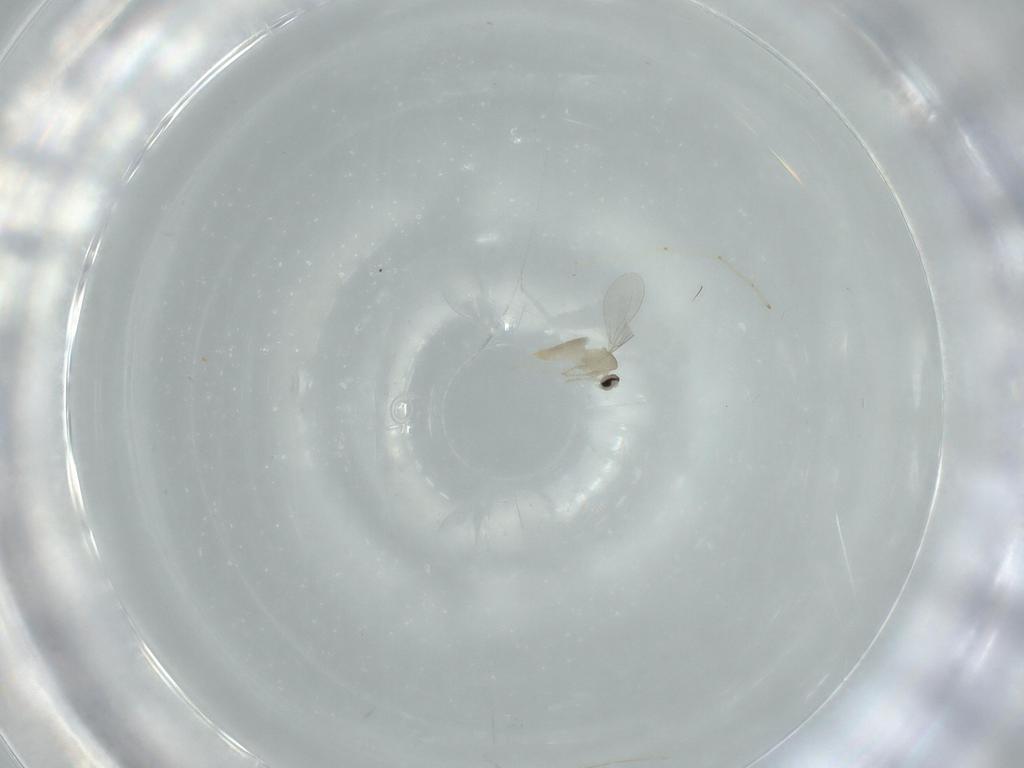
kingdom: Animalia
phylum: Arthropoda
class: Insecta
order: Diptera
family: Cecidomyiidae
